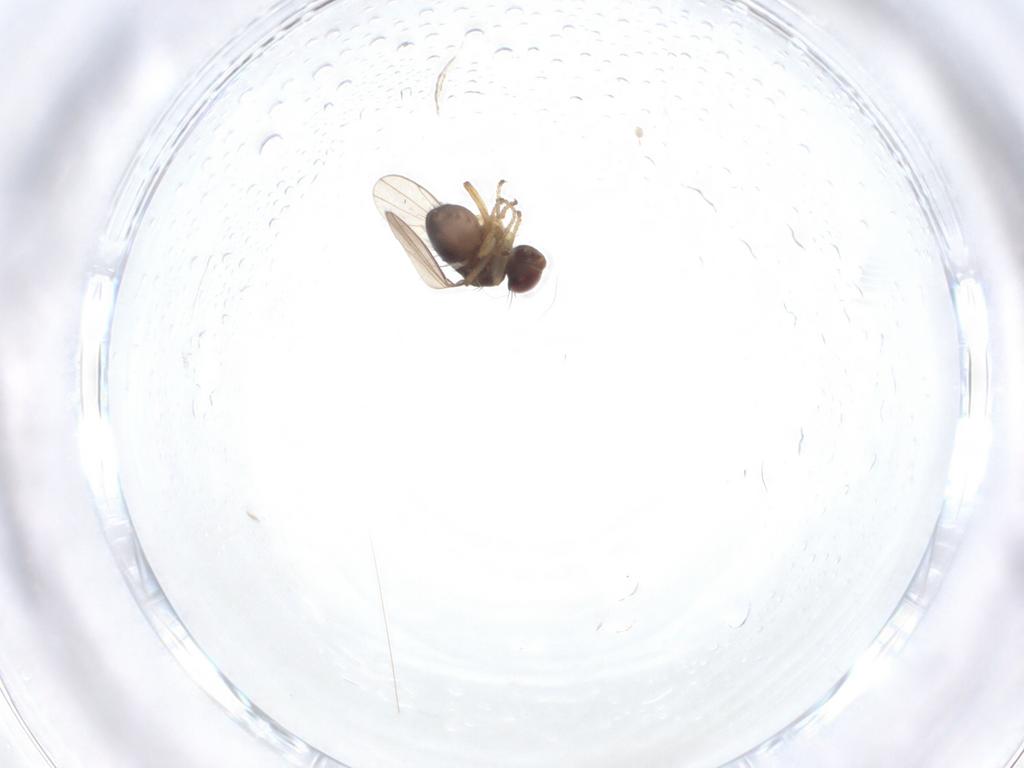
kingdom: Animalia
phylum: Arthropoda
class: Insecta
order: Diptera
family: Ephydridae
